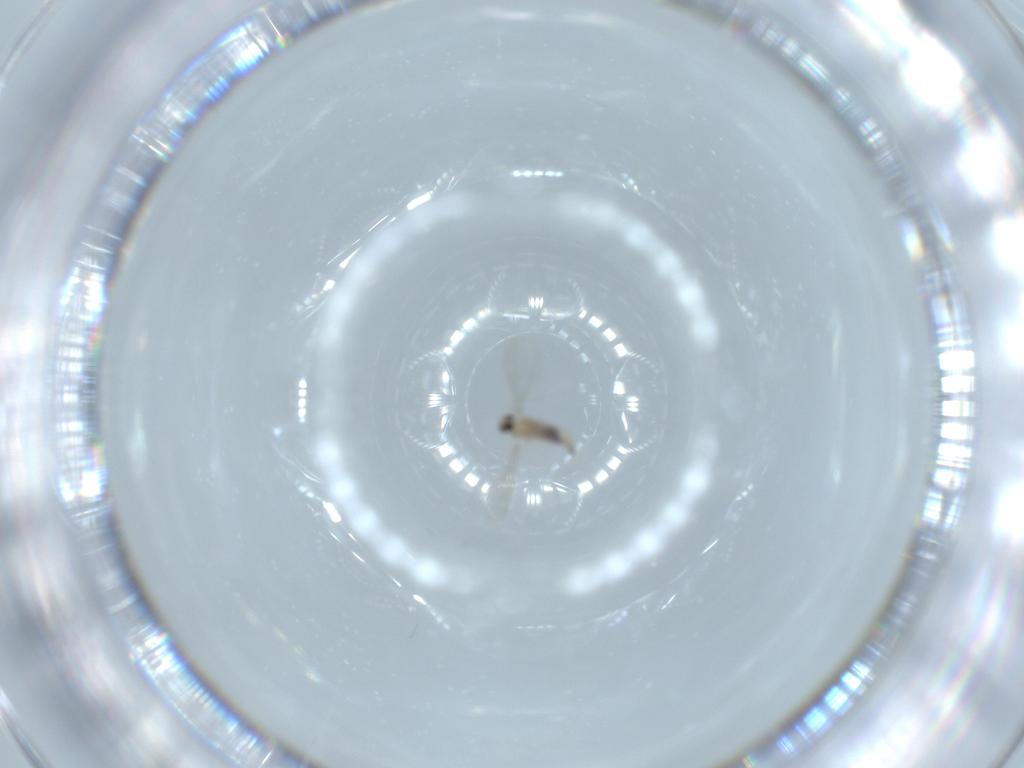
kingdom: Animalia
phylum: Arthropoda
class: Insecta
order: Diptera
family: Cecidomyiidae
